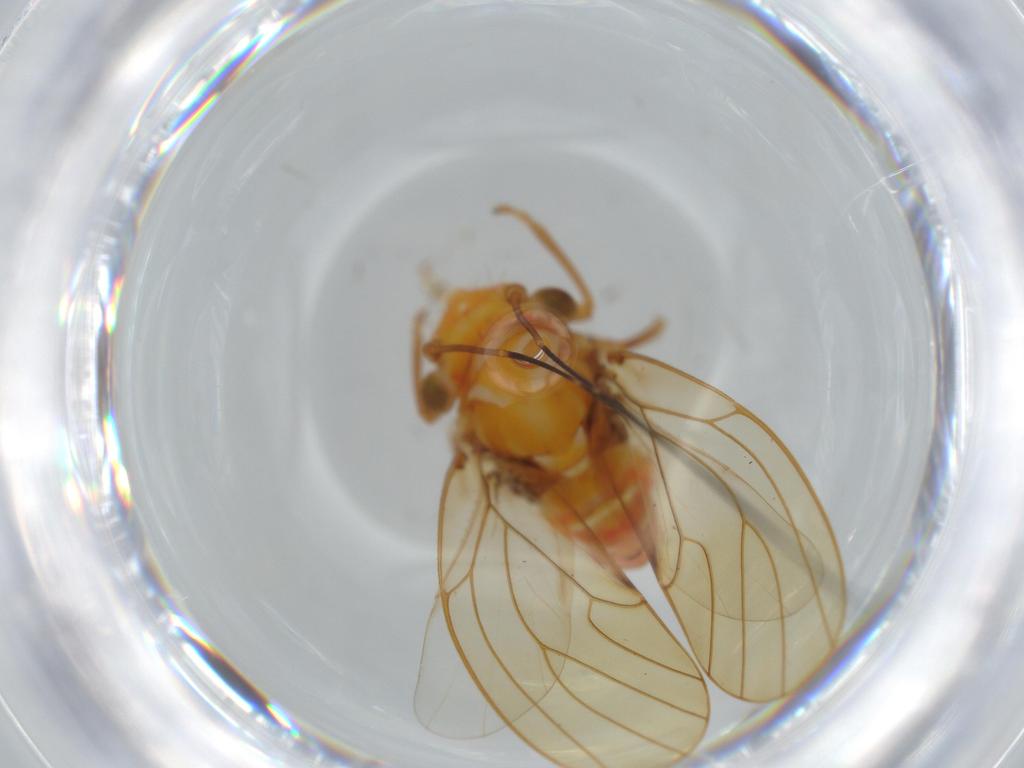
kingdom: Animalia
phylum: Arthropoda
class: Insecta
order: Hemiptera
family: Psyllidae
